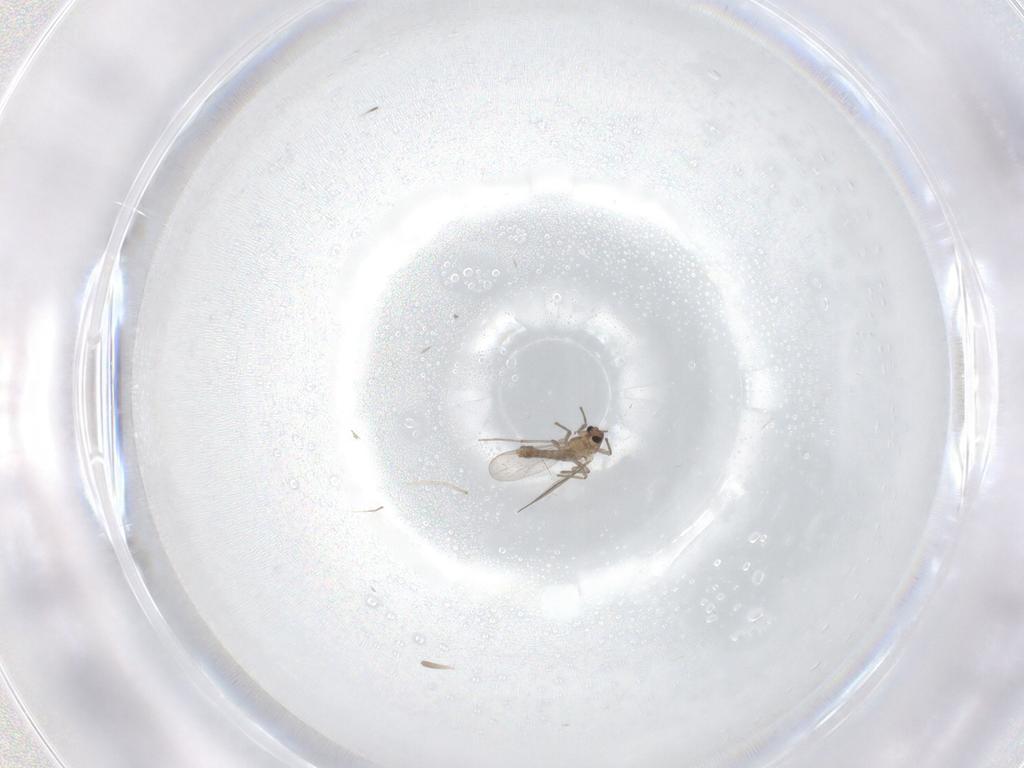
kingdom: Animalia
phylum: Arthropoda
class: Insecta
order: Diptera
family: Chironomidae
